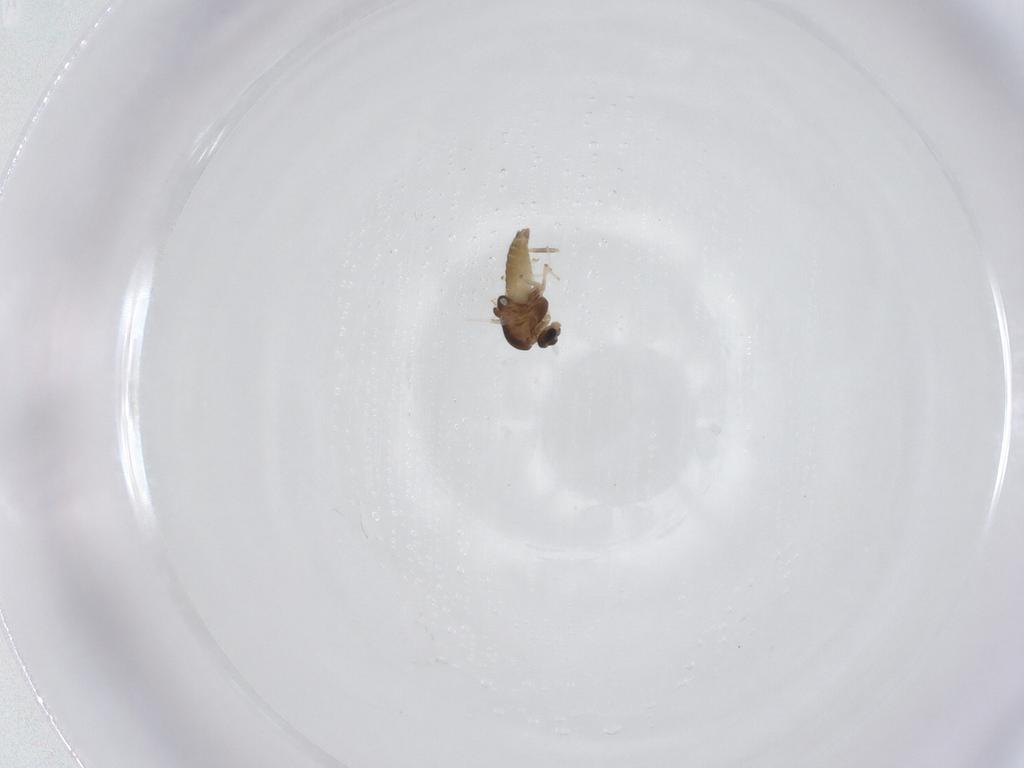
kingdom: Animalia
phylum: Arthropoda
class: Insecta
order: Diptera
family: Chironomidae
